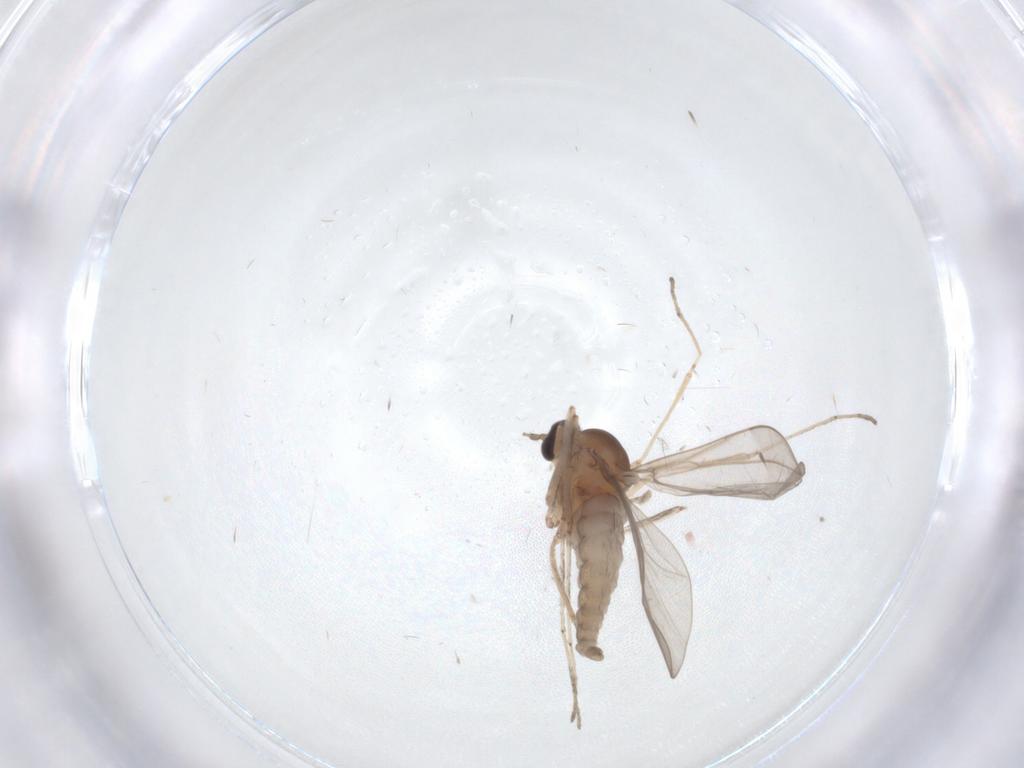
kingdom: Animalia
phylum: Arthropoda
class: Insecta
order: Diptera
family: Cecidomyiidae
